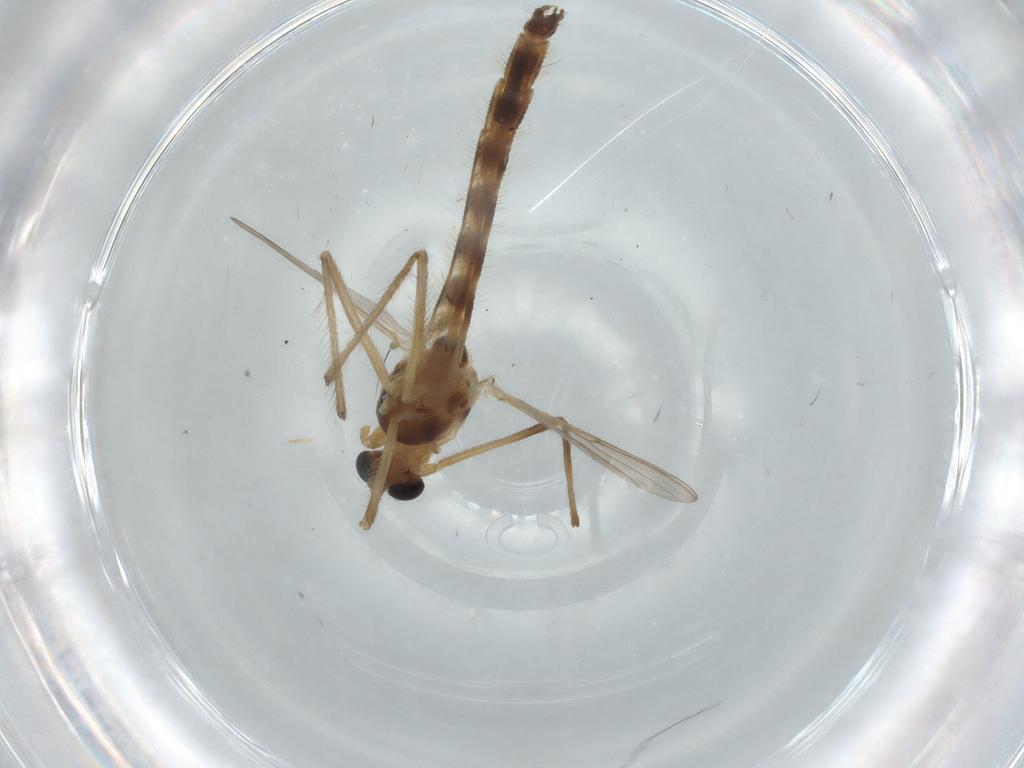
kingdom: Animalia
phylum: Arthropoda
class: Insecta
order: Diptera
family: Chironomidae
